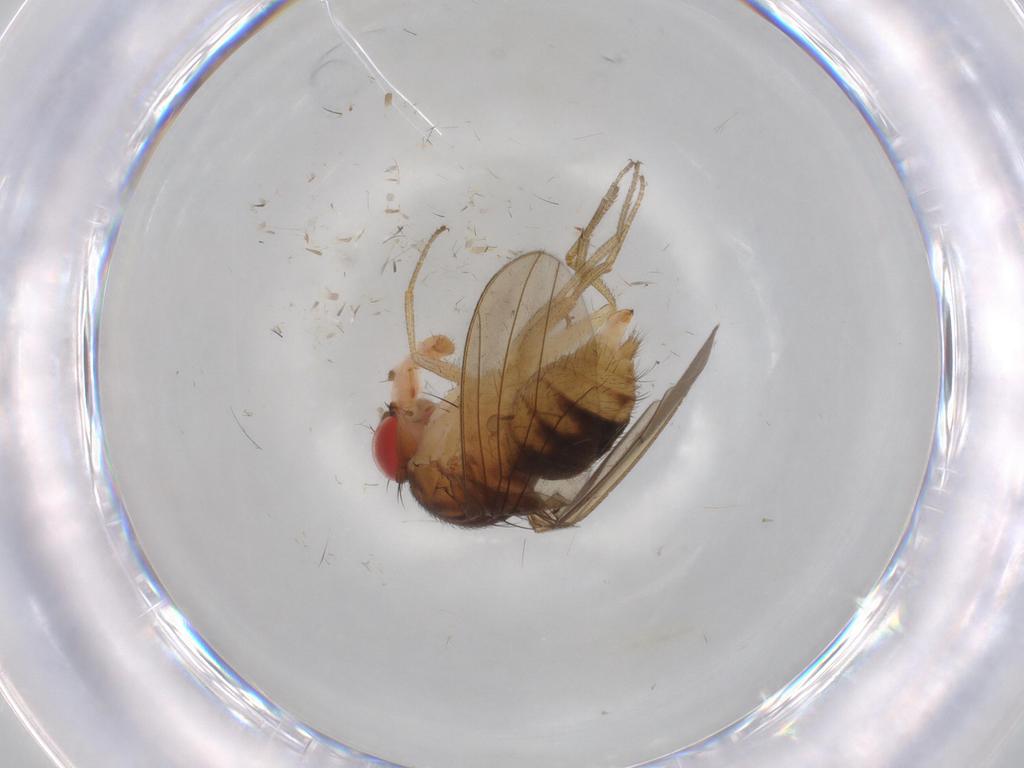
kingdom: Animalia
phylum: Arthropoda
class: Insecta
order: Diptera
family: Drosophilidae
